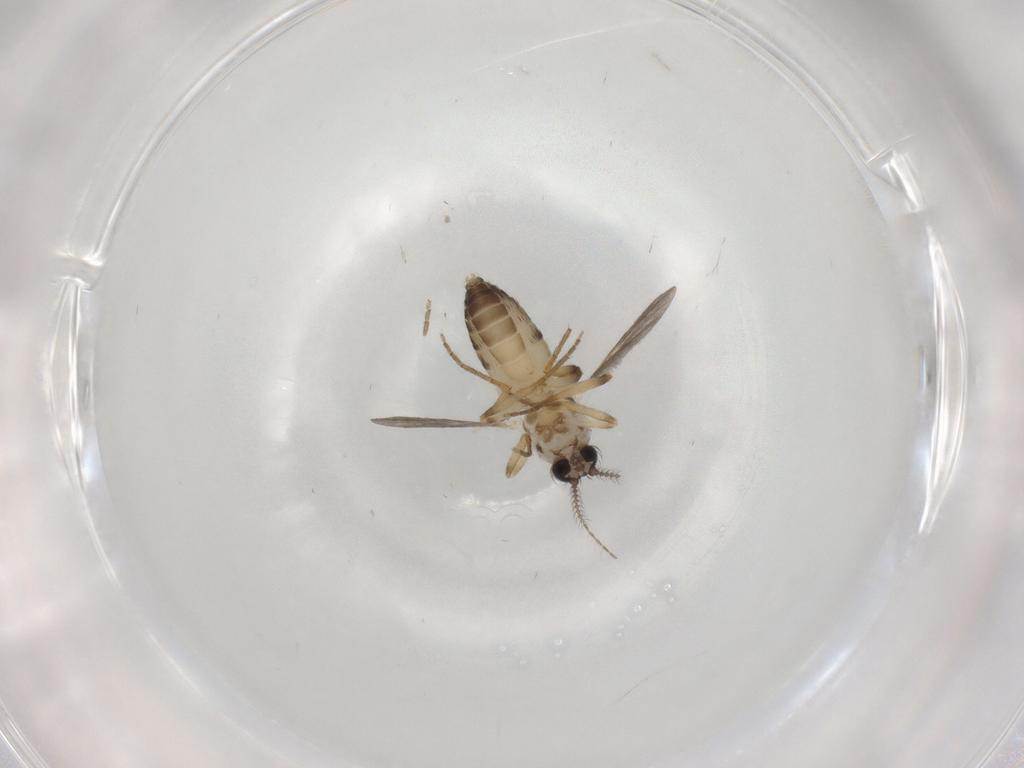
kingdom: Animalia
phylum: Arthropoda
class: Insecta
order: Diptera
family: Ceratopogonidae
